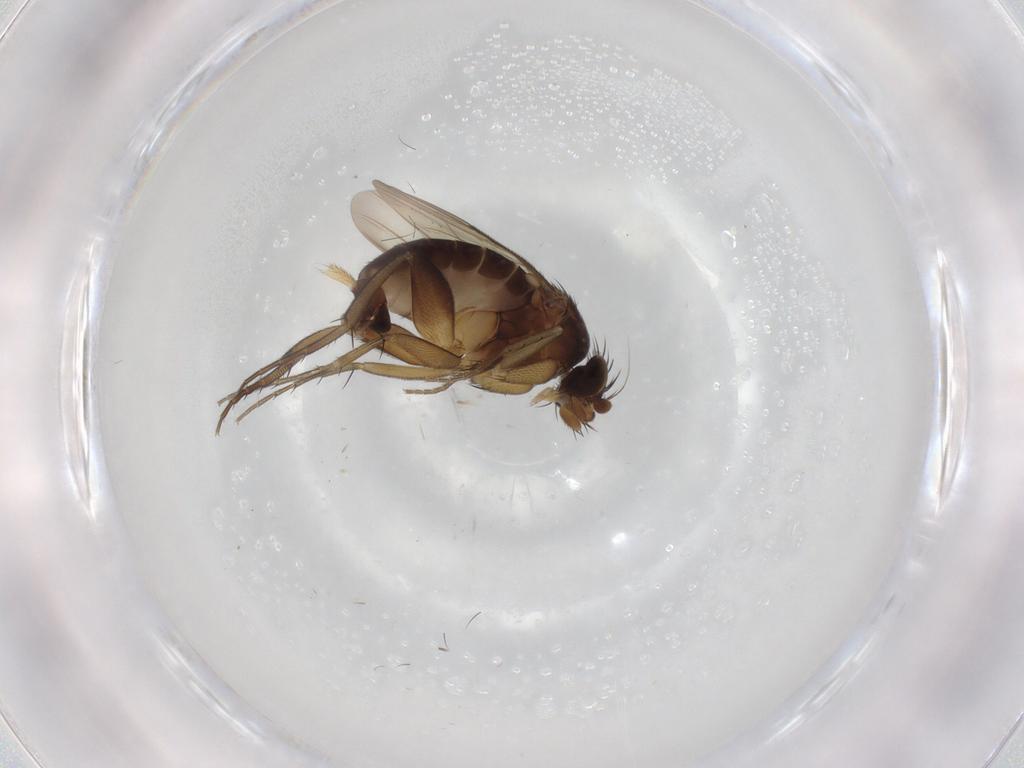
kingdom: Animalia
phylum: Arthropoda
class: Insecta
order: Diptera
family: Phoridae
